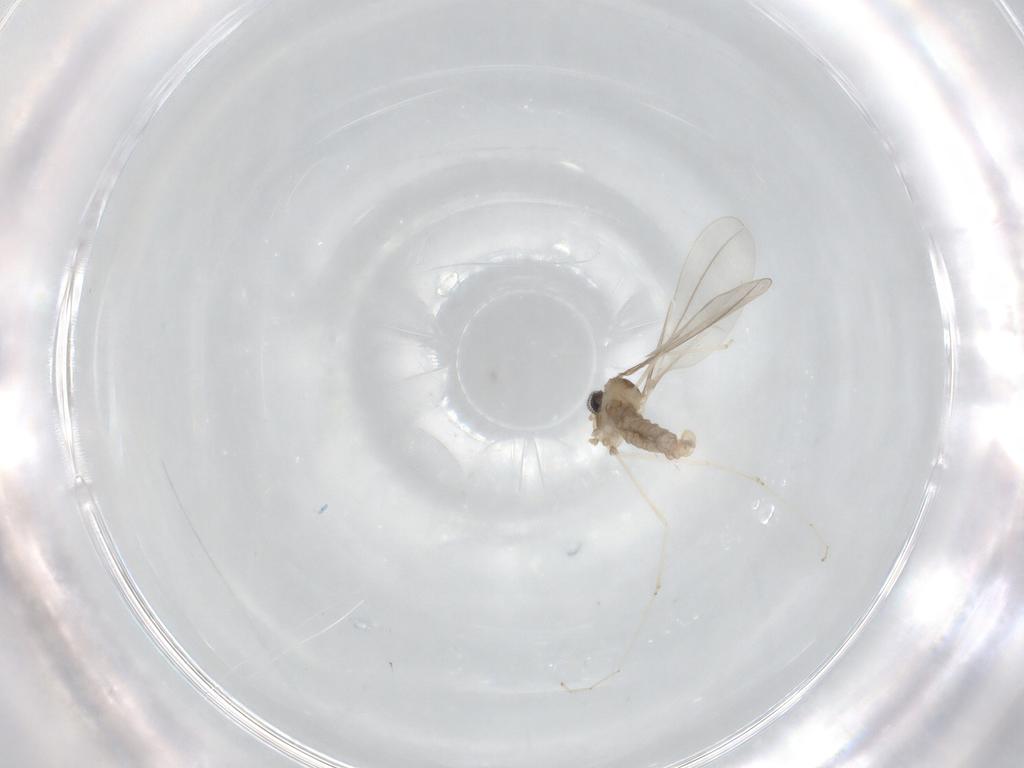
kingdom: Animalia
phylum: Arthropoda
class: Insecta
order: Diptera
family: Cecidomyiidae
